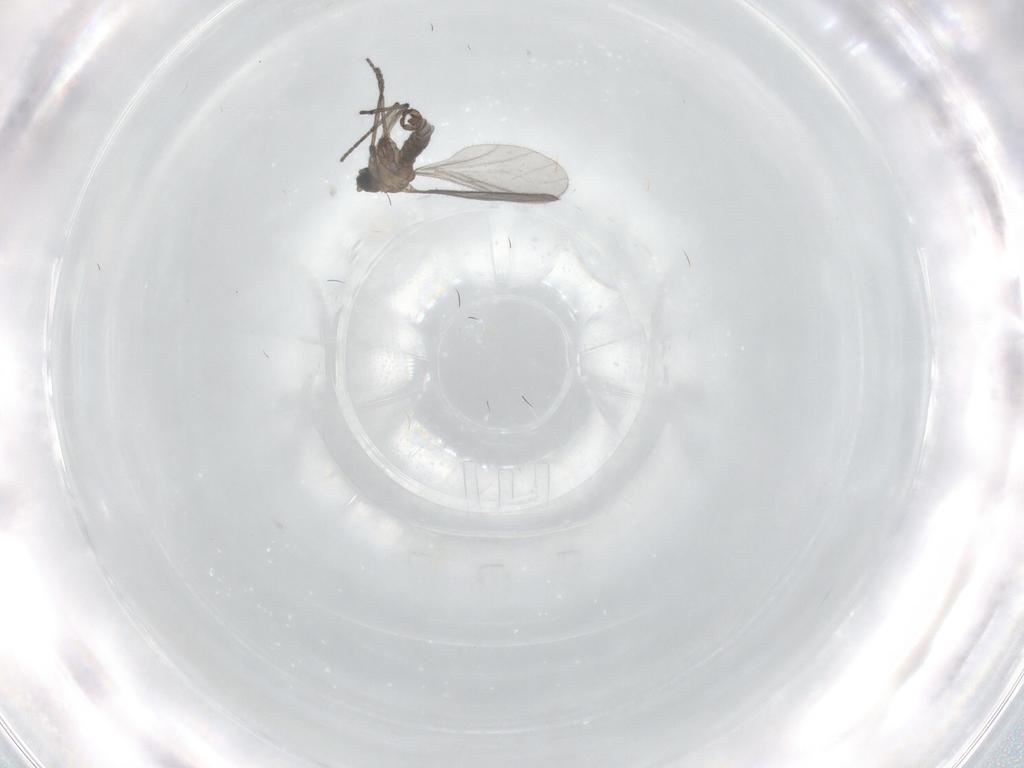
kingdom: Animalia
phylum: Arthropoda
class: Insecta
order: Diptera
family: Sciaridae
